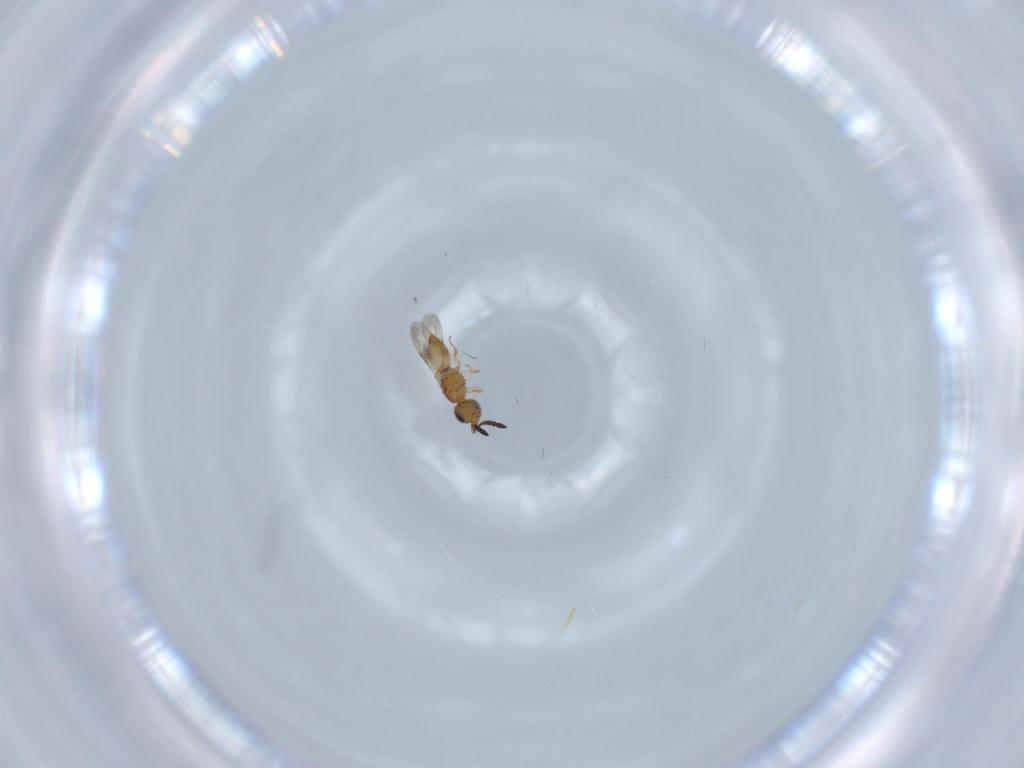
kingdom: Animalia
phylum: Arthropoda
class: Insecta
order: Hymenoptera
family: Ceraphronidae
